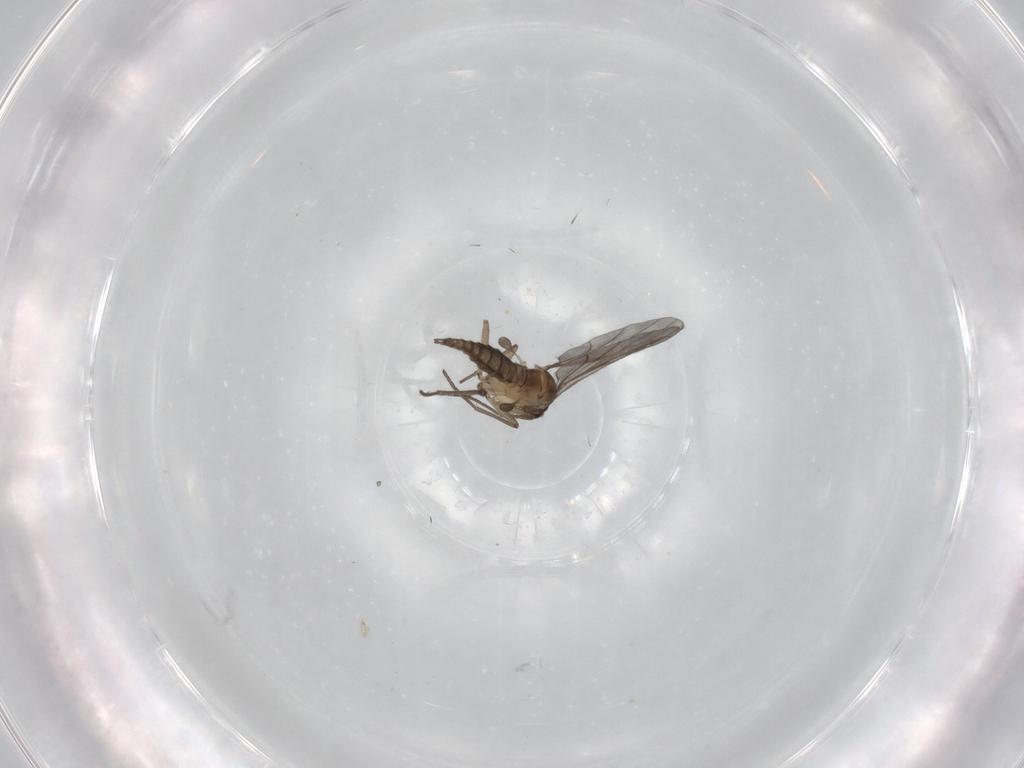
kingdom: Animalia
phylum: Arthropoda
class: Insecta
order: Diptera
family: Sciaridae
